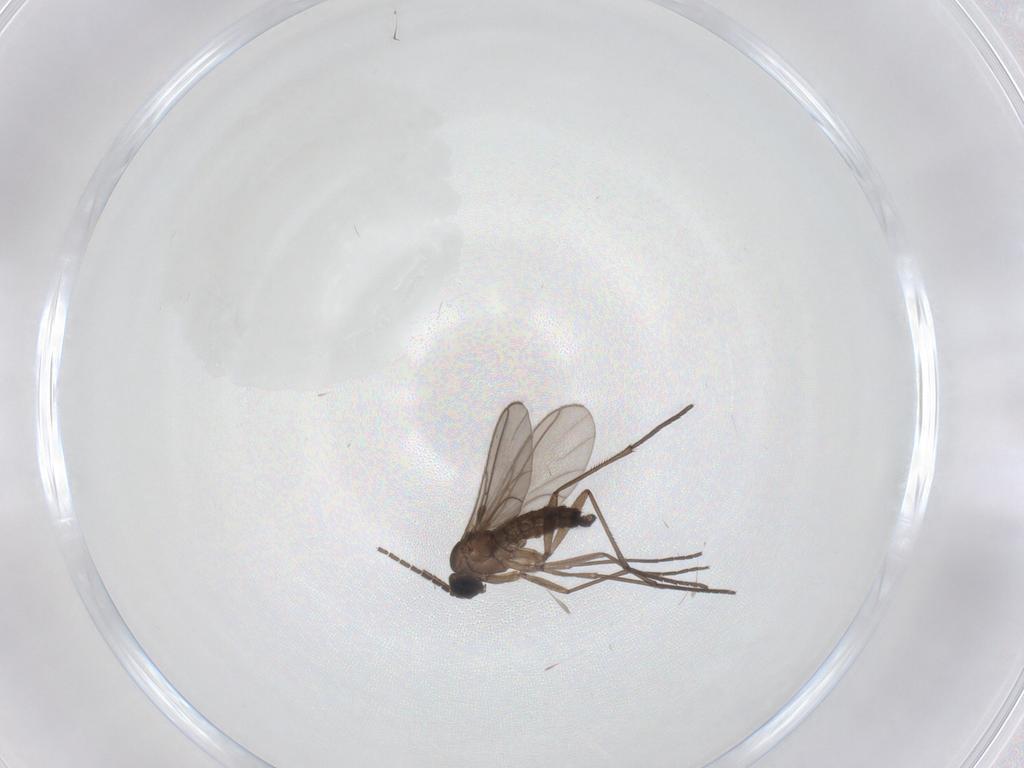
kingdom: Animalia
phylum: Arthropoda
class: Insecta
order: Diptera
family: Sciaridae
